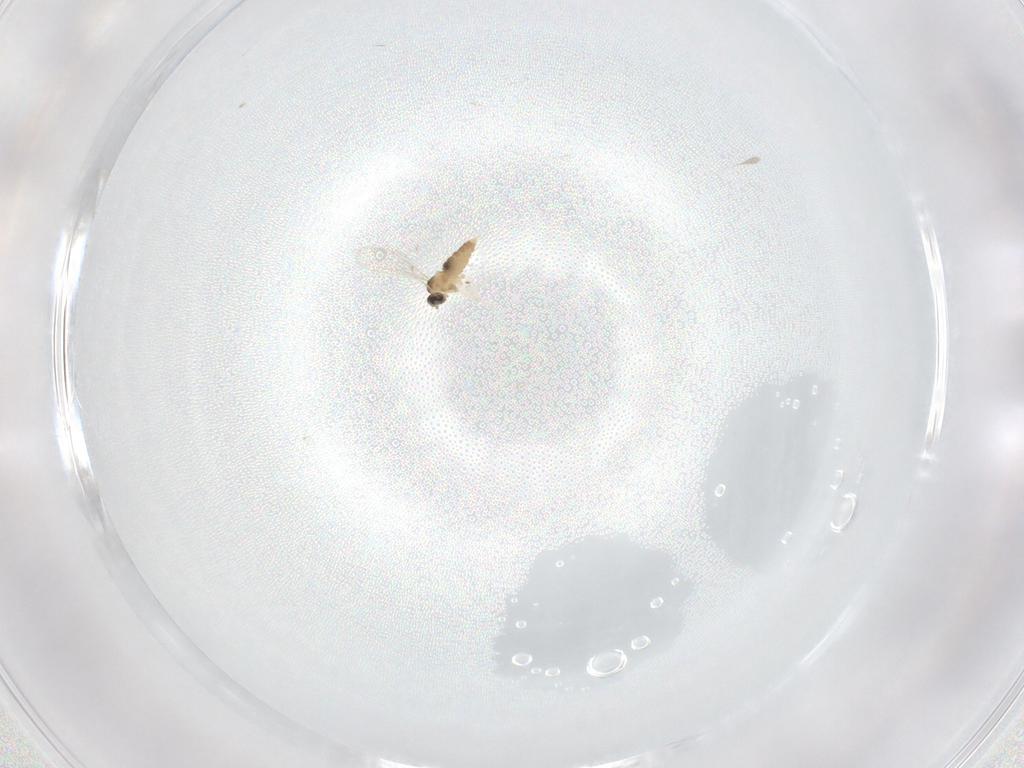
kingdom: Animalia
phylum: Arthropoda
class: Insecta
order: Diptera
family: Cecidomyiidae
